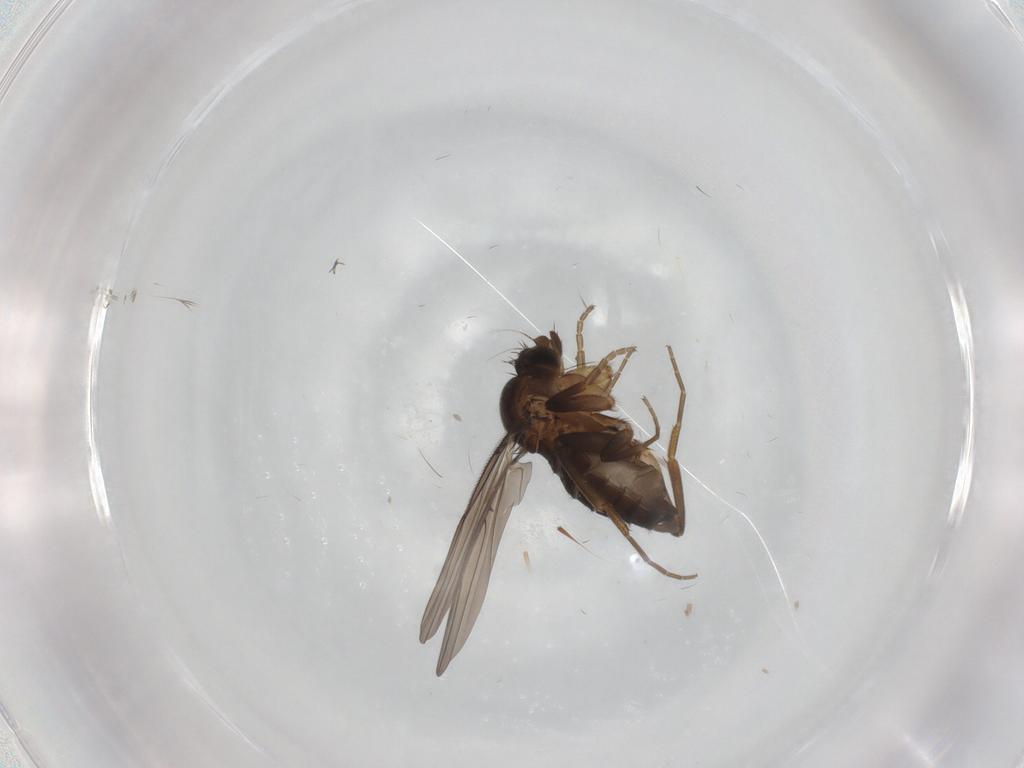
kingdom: Animalia
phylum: Arthropoda
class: Insecta
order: Diptera
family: Phoridae
